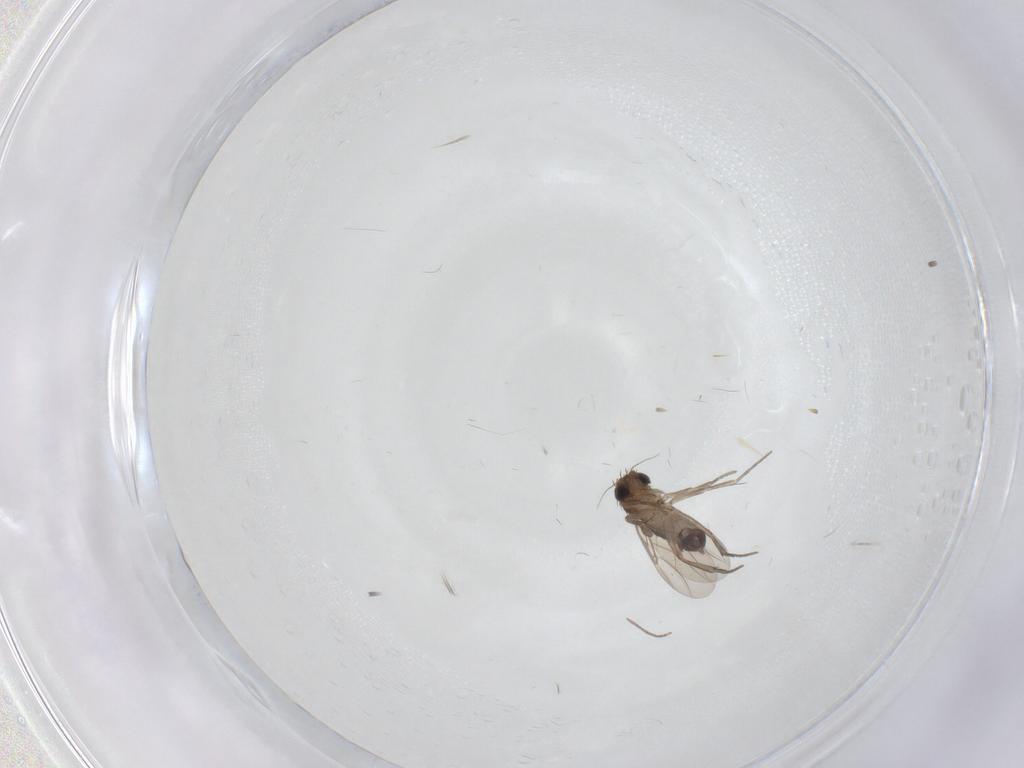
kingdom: Animalia
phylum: Arthropoda
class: Insecta
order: Diptera
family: Phoridae
